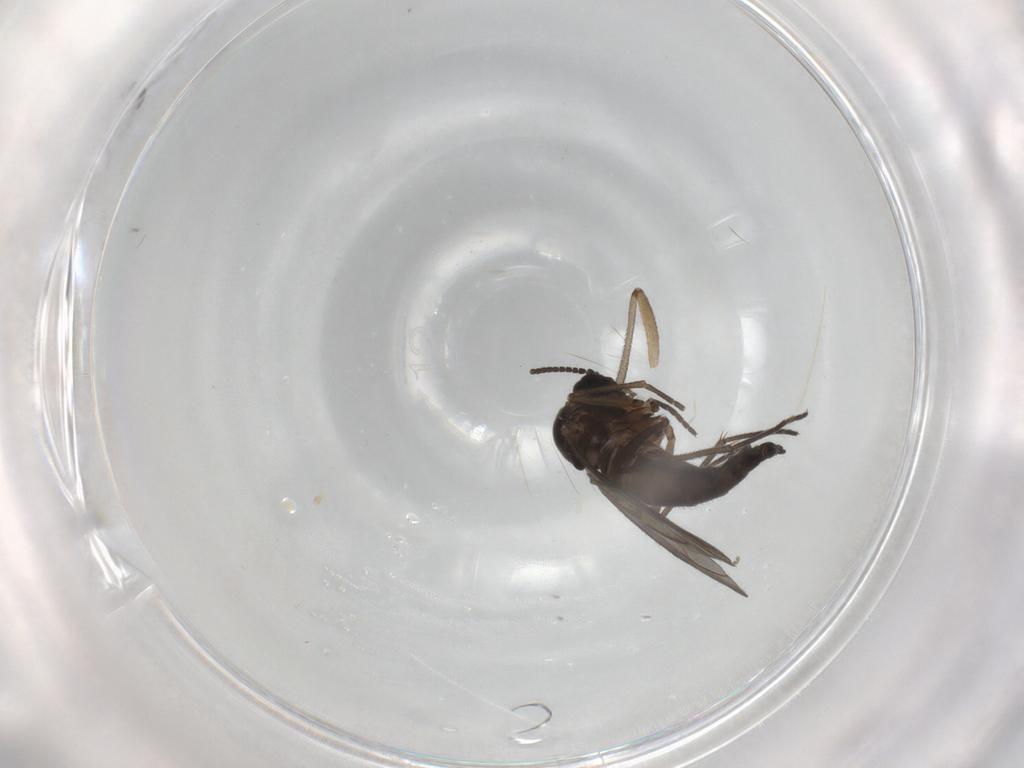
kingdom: Animalia
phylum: Arthropoda
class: Insecta
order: Diptera
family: Sciaridae
